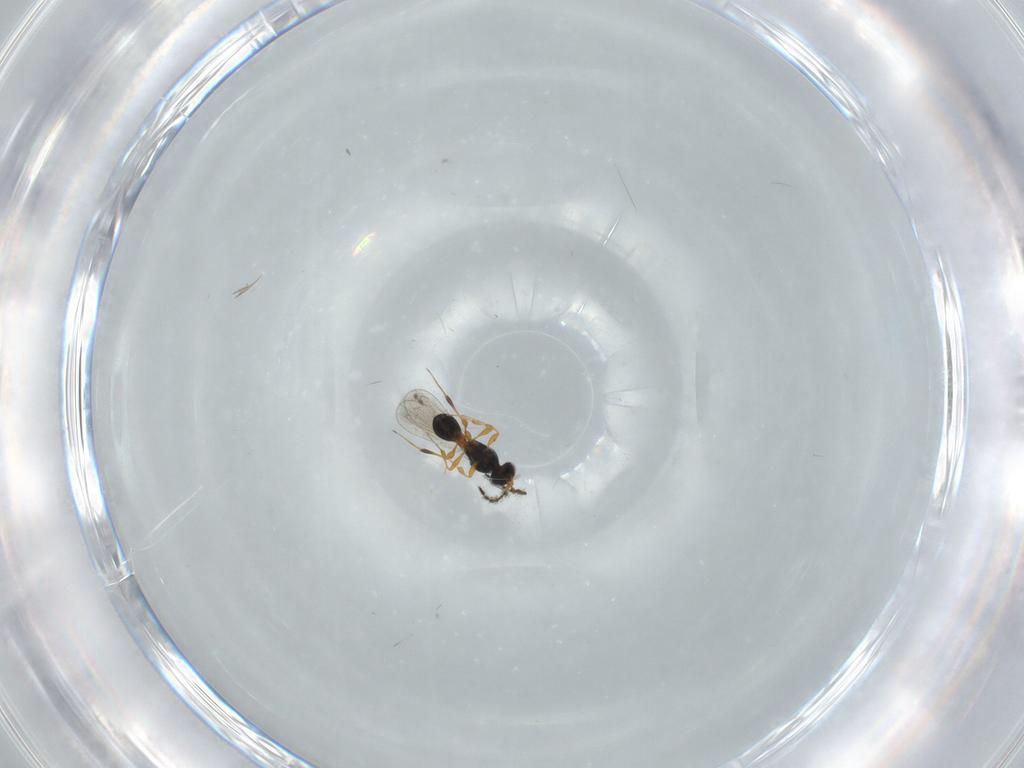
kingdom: Animalia
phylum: Arthropoda
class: Insecta
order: Hymenoptera
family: Platygastridae
